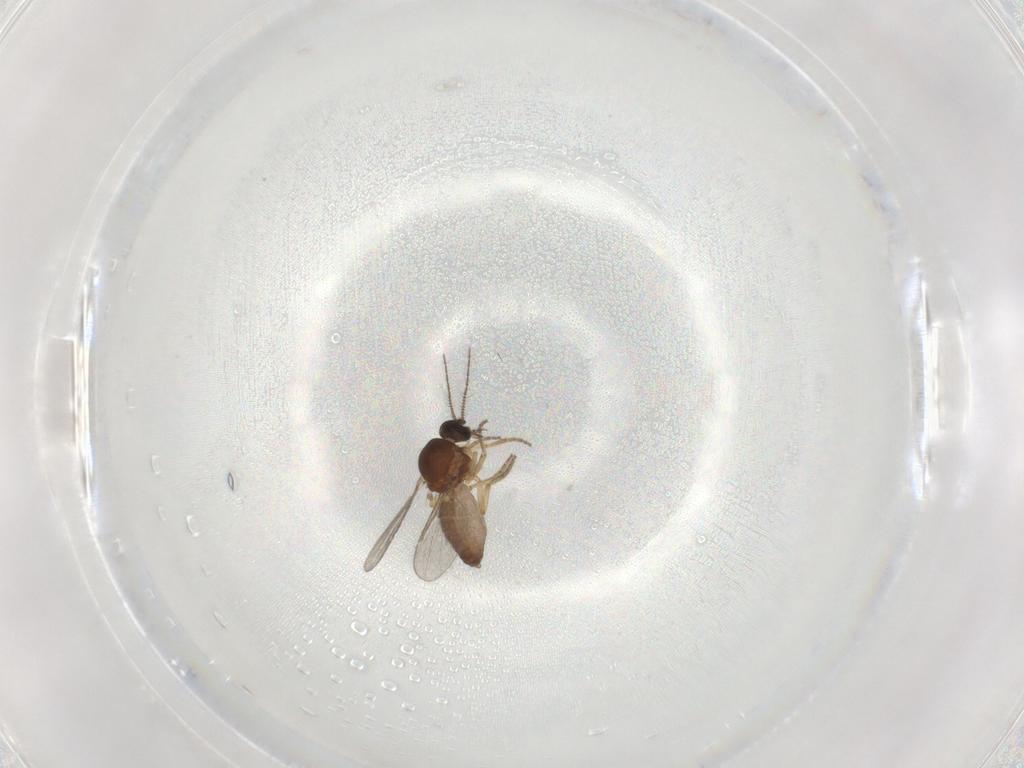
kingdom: Animalia
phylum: Arthropoda
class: Insecta
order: Diptera
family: Ceratopogonidae
